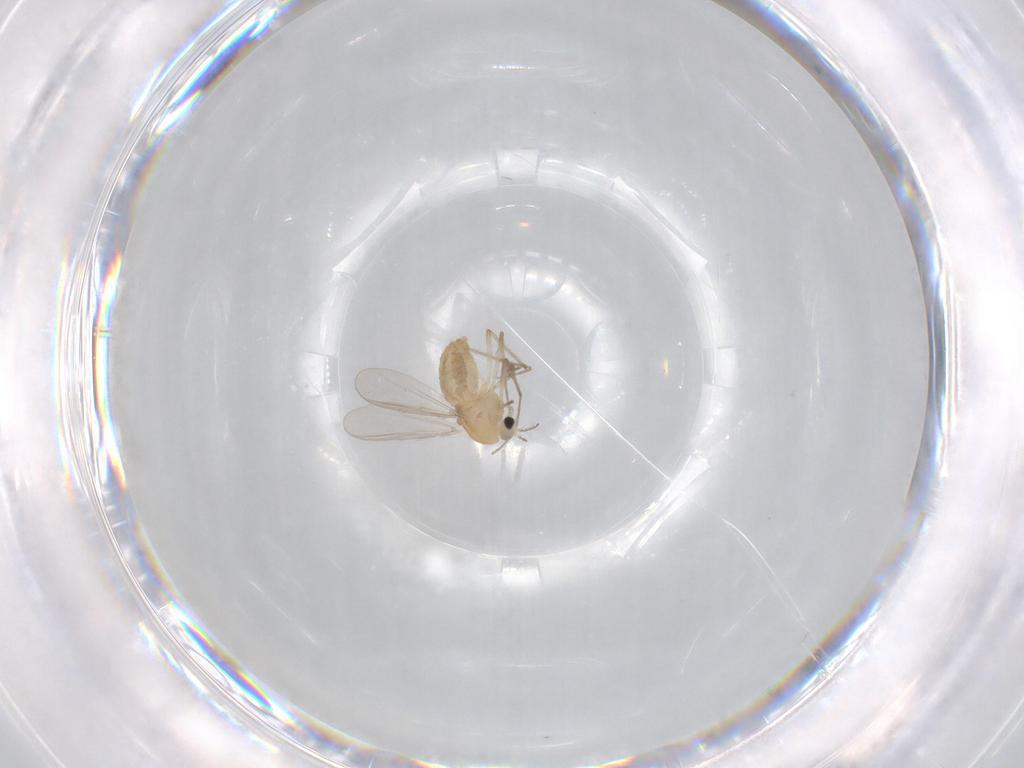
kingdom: Animalia
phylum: Arthropoda
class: Insecta
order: Diptera
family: Chironomidae
